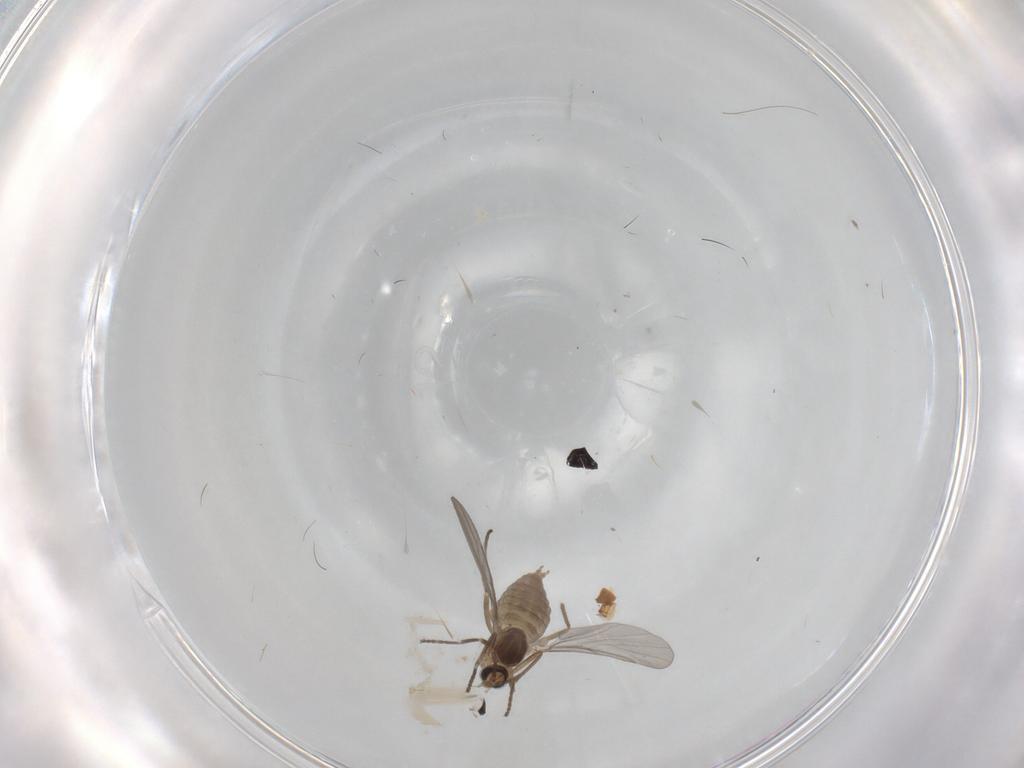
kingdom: Animalia
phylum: Arthropoda
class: Insecta
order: Diptera
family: Cecidomyiidae
